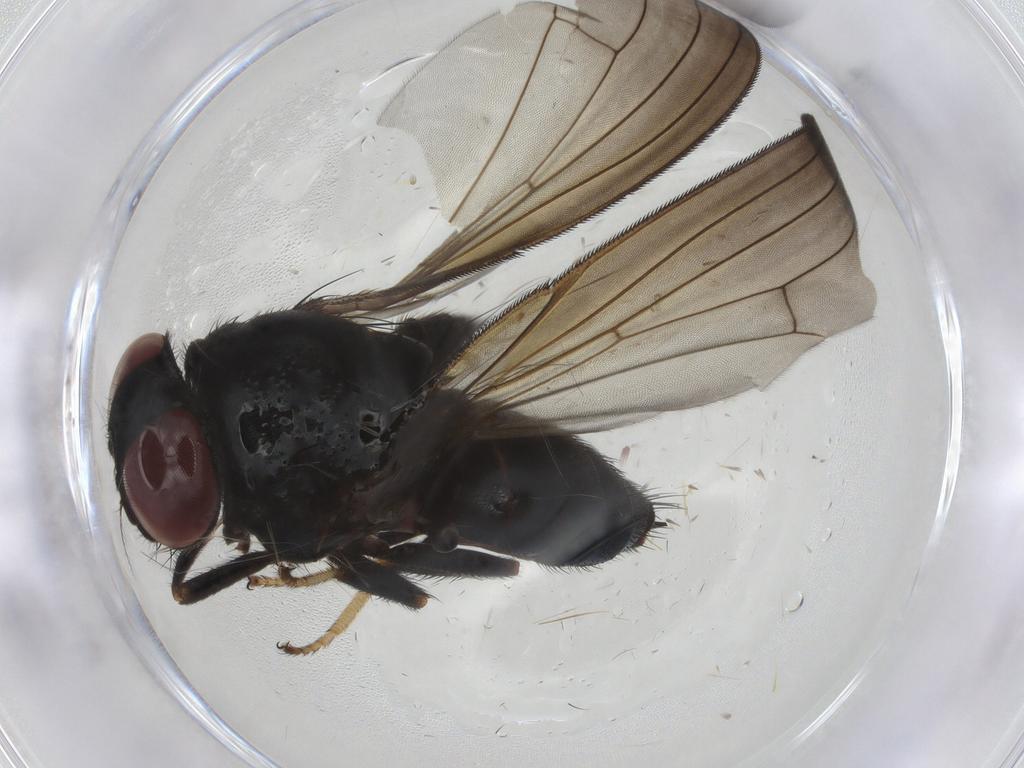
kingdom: Animalia
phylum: Arthropoda
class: Insecta
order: Diptera
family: Lonchaeidae
